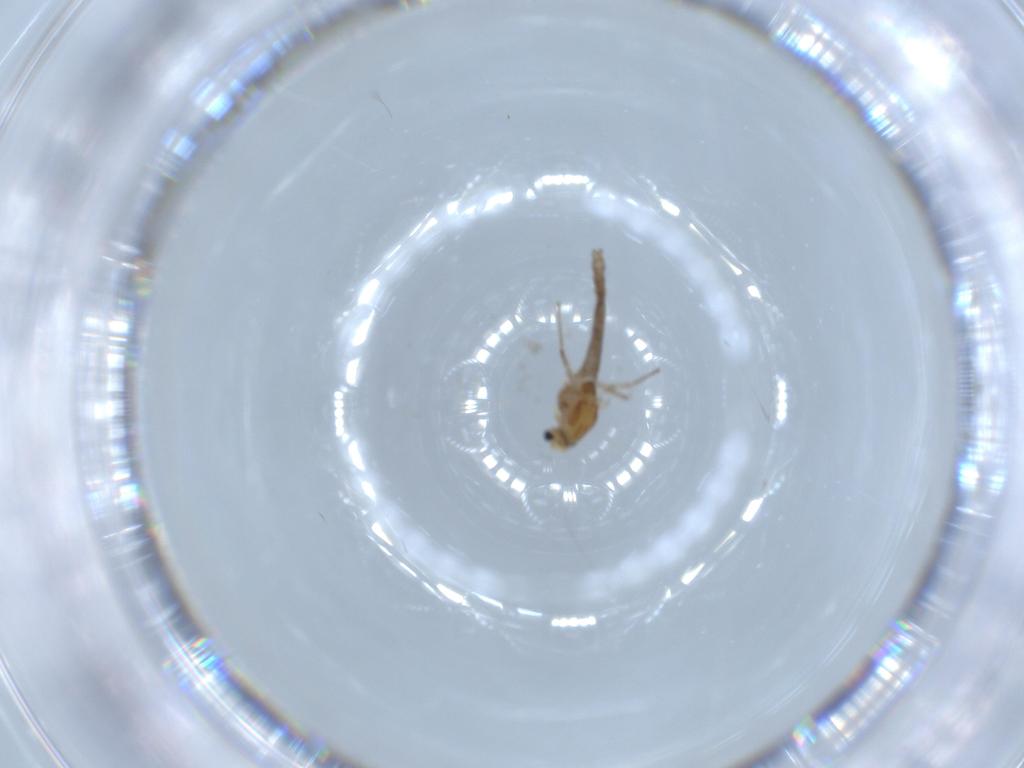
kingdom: Animalia
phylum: Arthropoda
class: Insecta
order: Diptera
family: Chironomidae
